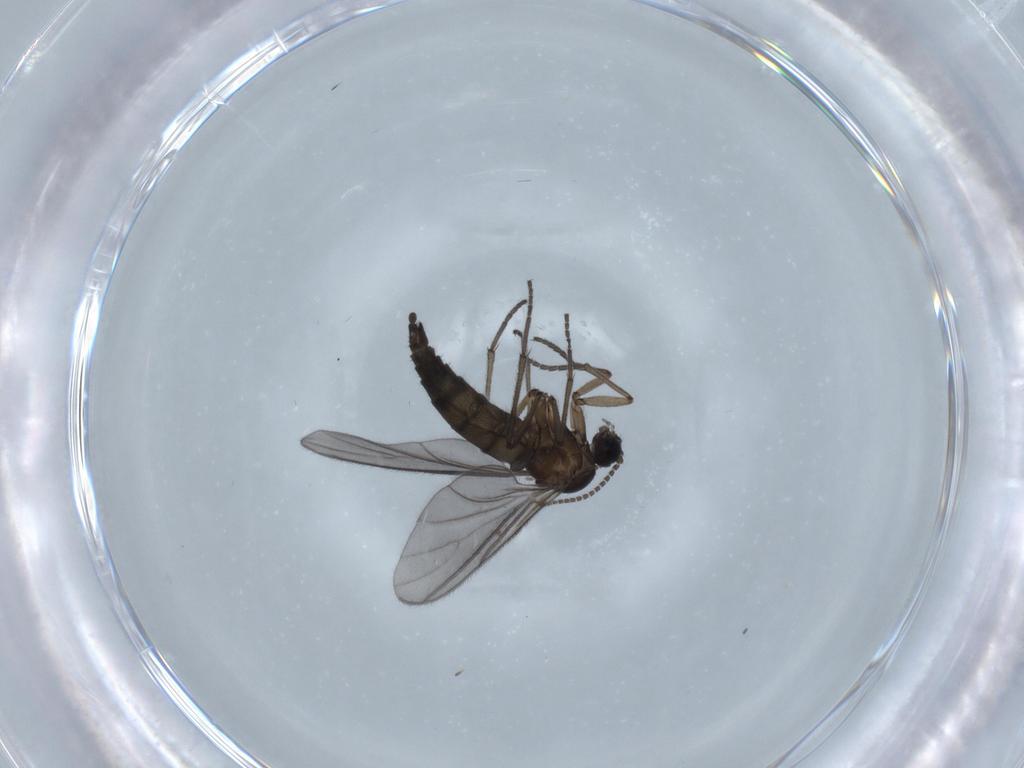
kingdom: Animalia
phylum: Arthropoda
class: Insecta
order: Diptera
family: Sciaridae
